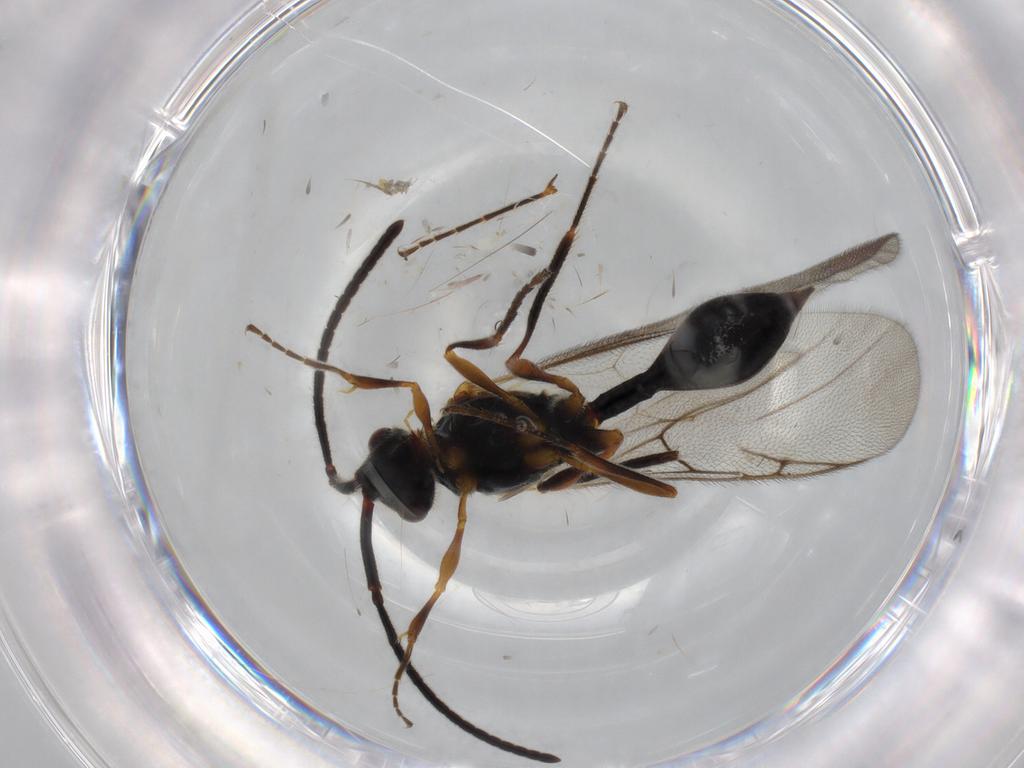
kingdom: Animalia
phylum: Arthropoda
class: Insecta
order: Hymenoptera
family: Diapriidae
